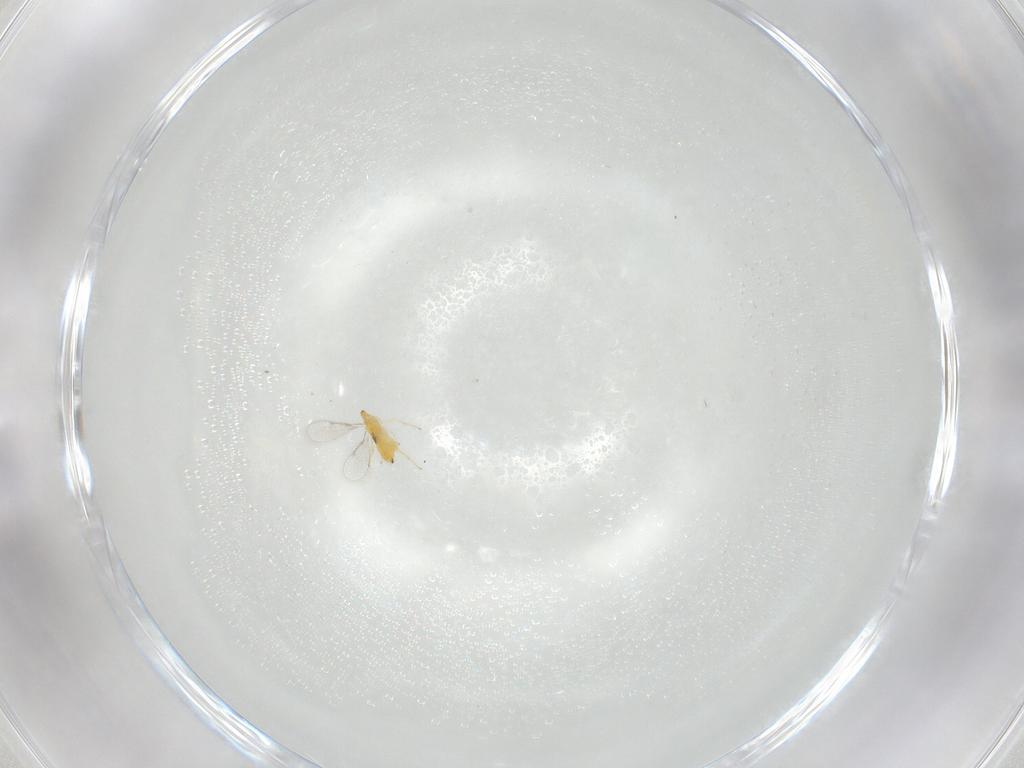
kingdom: Animalia
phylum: Arthropoda
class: Insecta
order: Hymenoptera
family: Aphelinidae
